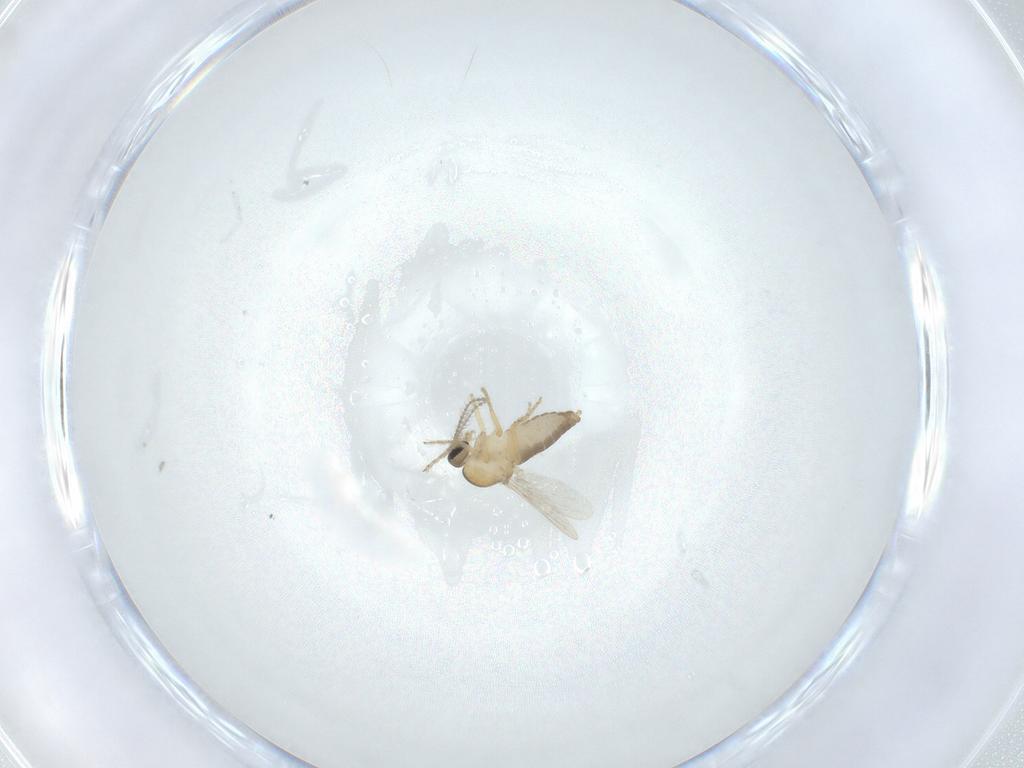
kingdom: Animalia
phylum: Arthropoda
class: Insecta
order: Diptera
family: Ceratopogonidae
